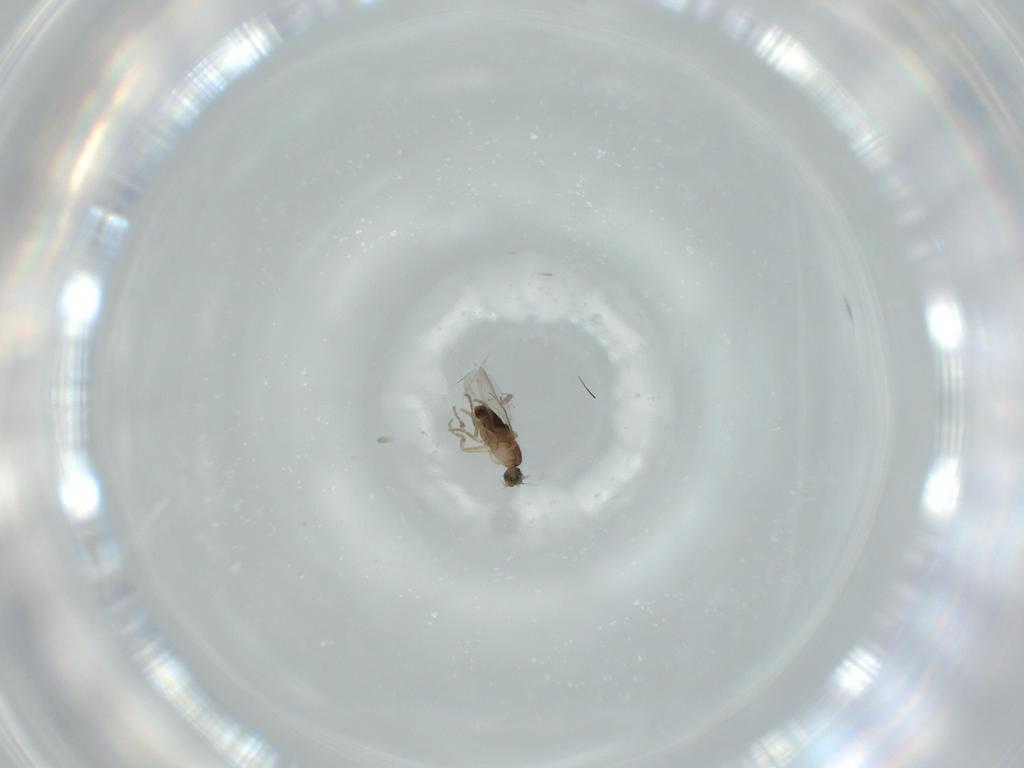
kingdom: Animalia
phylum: Arthropoda
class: Insecta
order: Diptera
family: Phoridae
